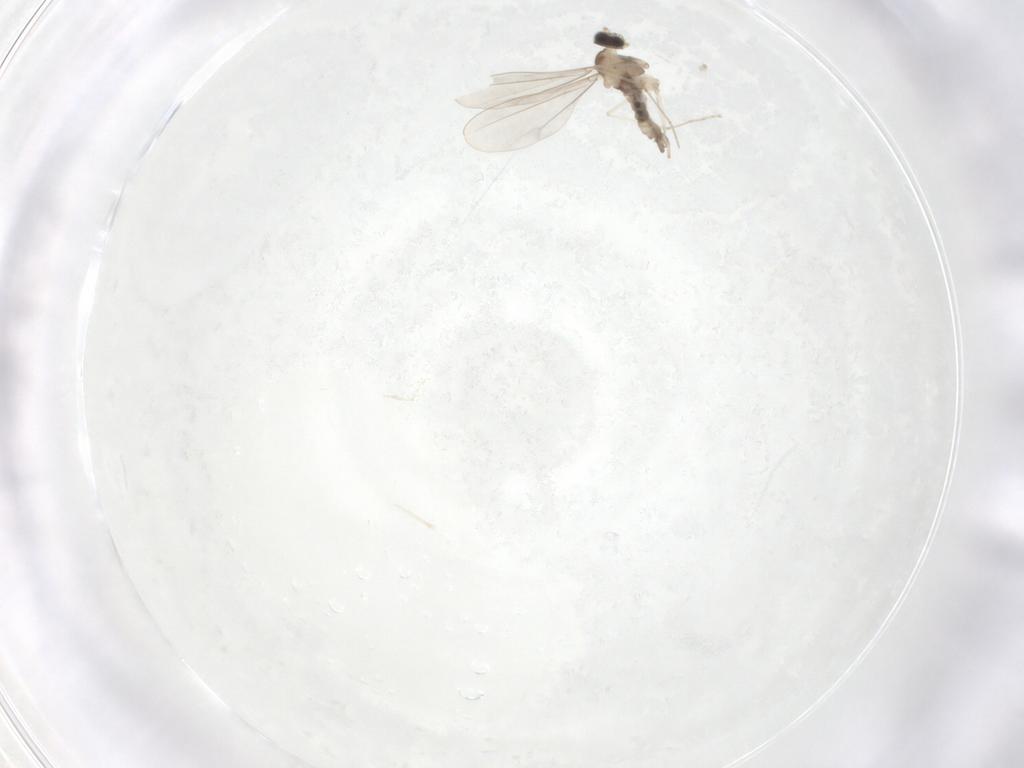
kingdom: Animalia
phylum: Arthropoda
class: Insecta
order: Diptera
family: Cecidomyiidae
